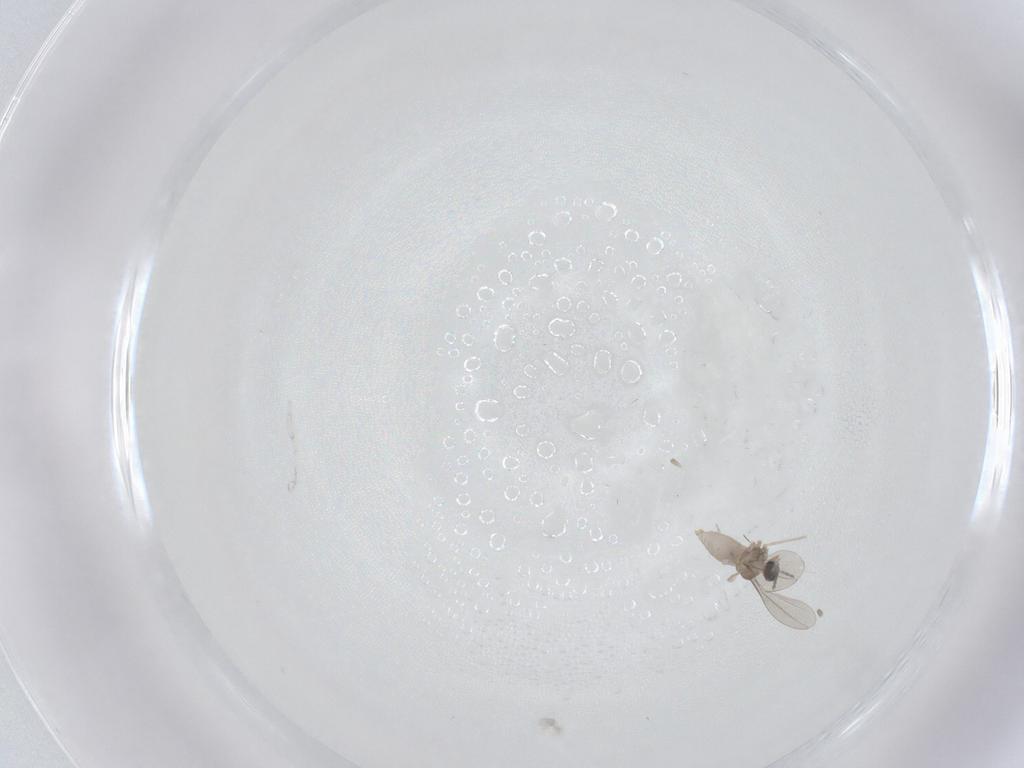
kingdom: Animalia
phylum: Arthropoda
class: Insecta
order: Diptera
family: Cecidomyiidae
